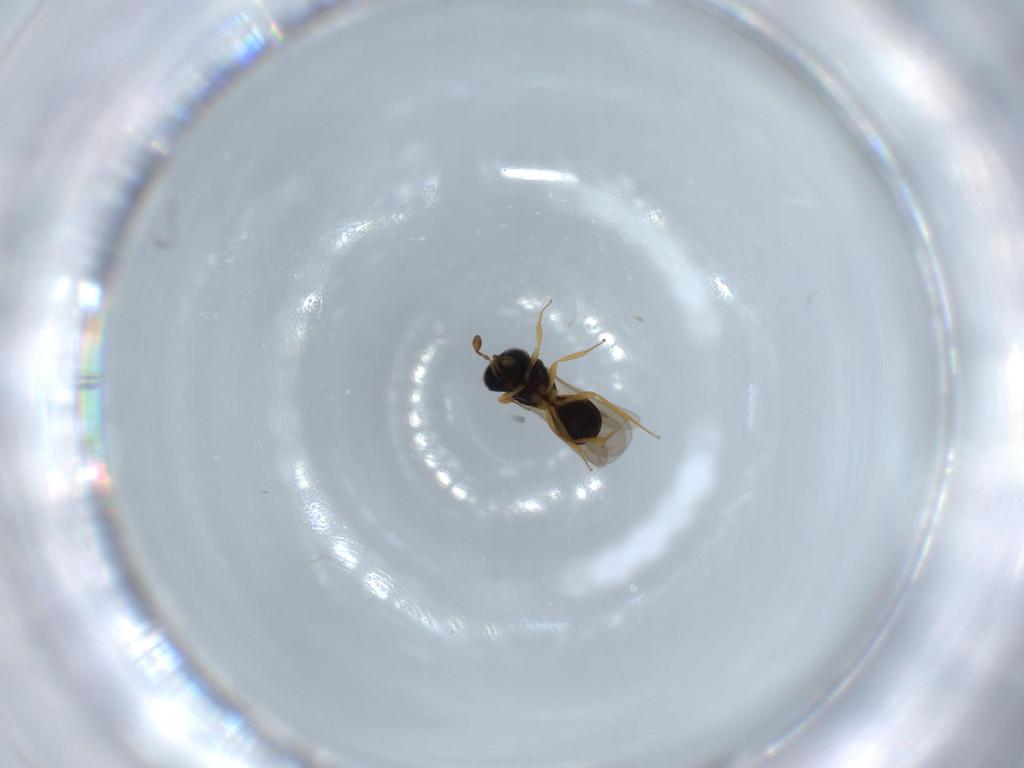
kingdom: Animalia
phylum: Arthropoda
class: Insecta
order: Hymenoptera
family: Scelionidae
